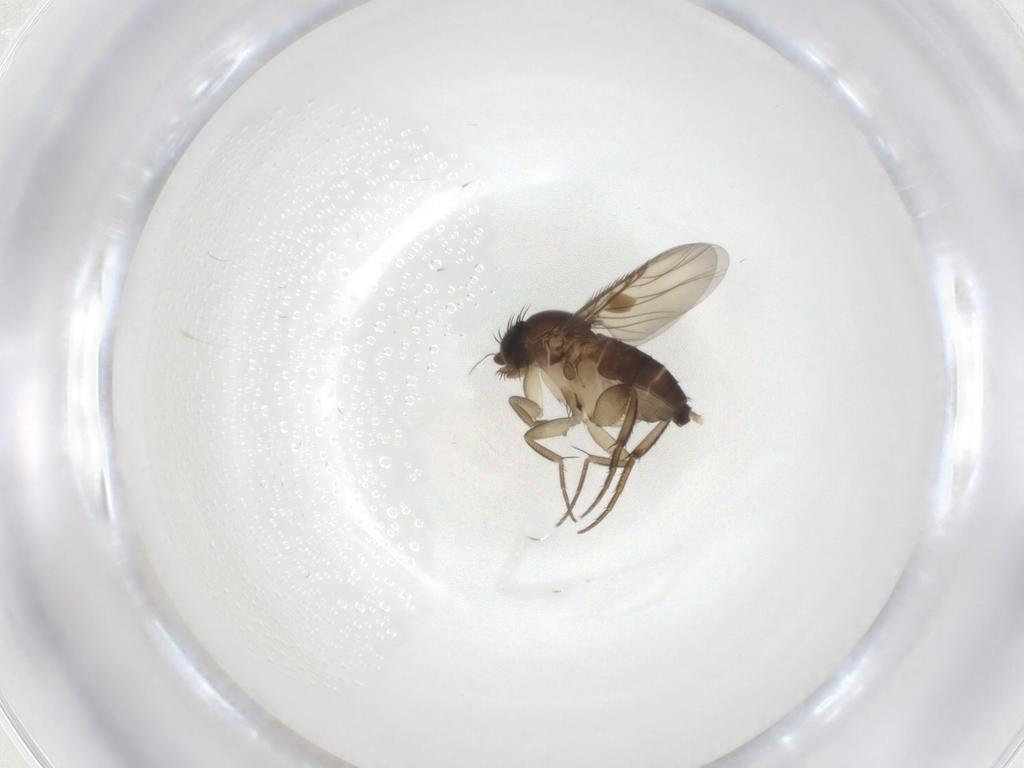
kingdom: Animalia
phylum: Arthropoda
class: Insecta
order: Diptera
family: Phoridae
